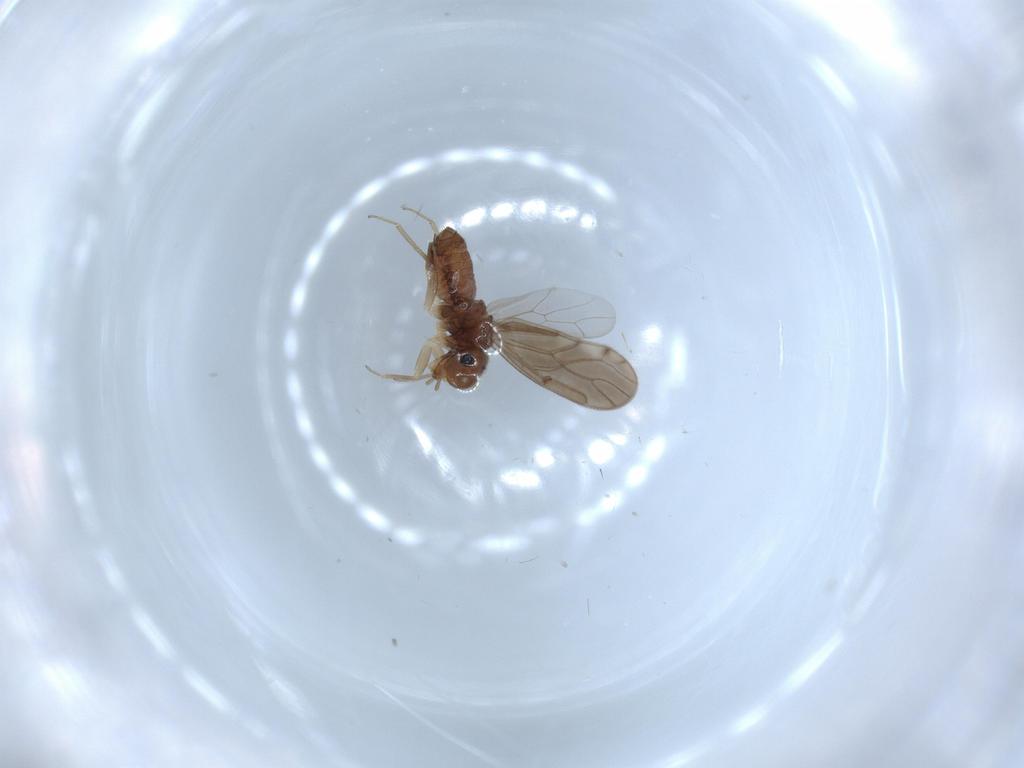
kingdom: Animalia
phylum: Arthropoda
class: Insecta
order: Psocodea
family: Ectopsocidae
